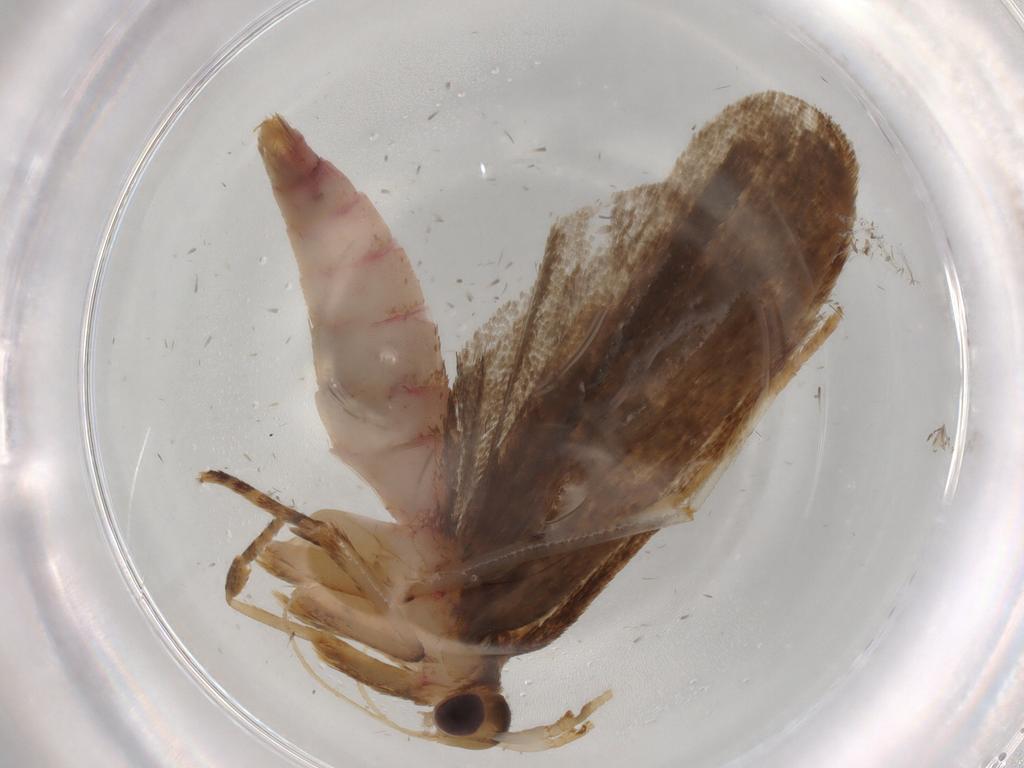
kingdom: Animalia
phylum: Arthropoda
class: Insecta
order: Lepidoptera
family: Autostichidae
